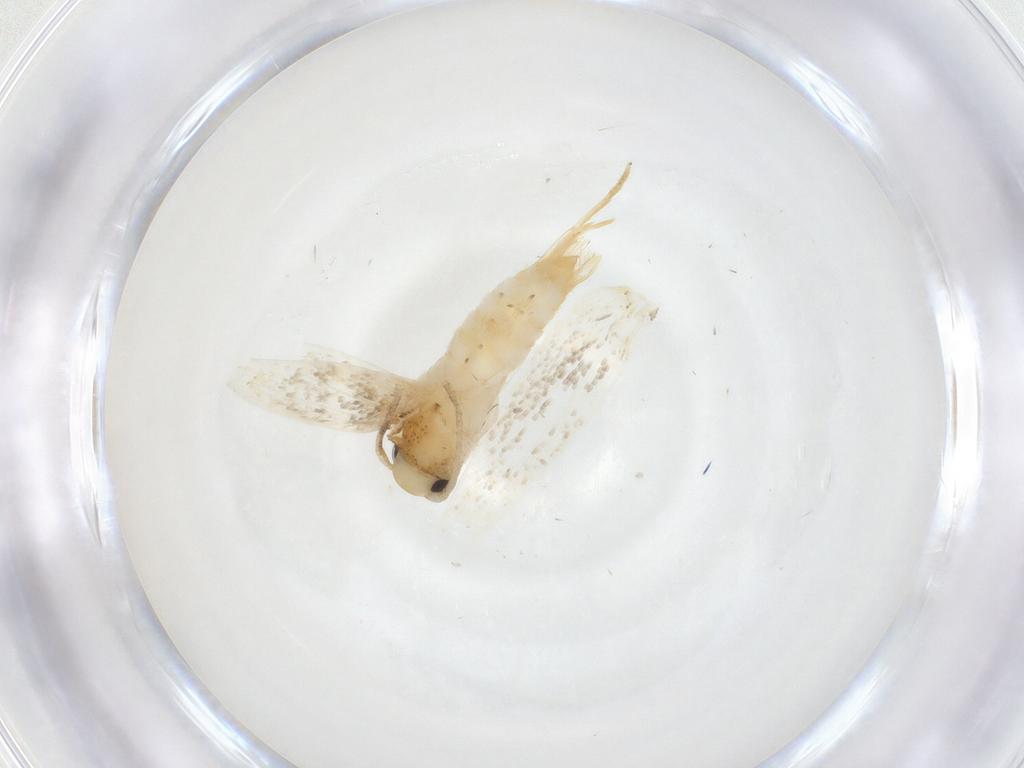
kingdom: Animalia
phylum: Arthropoda
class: Insecta
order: Lepidoptera
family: Erebidae
